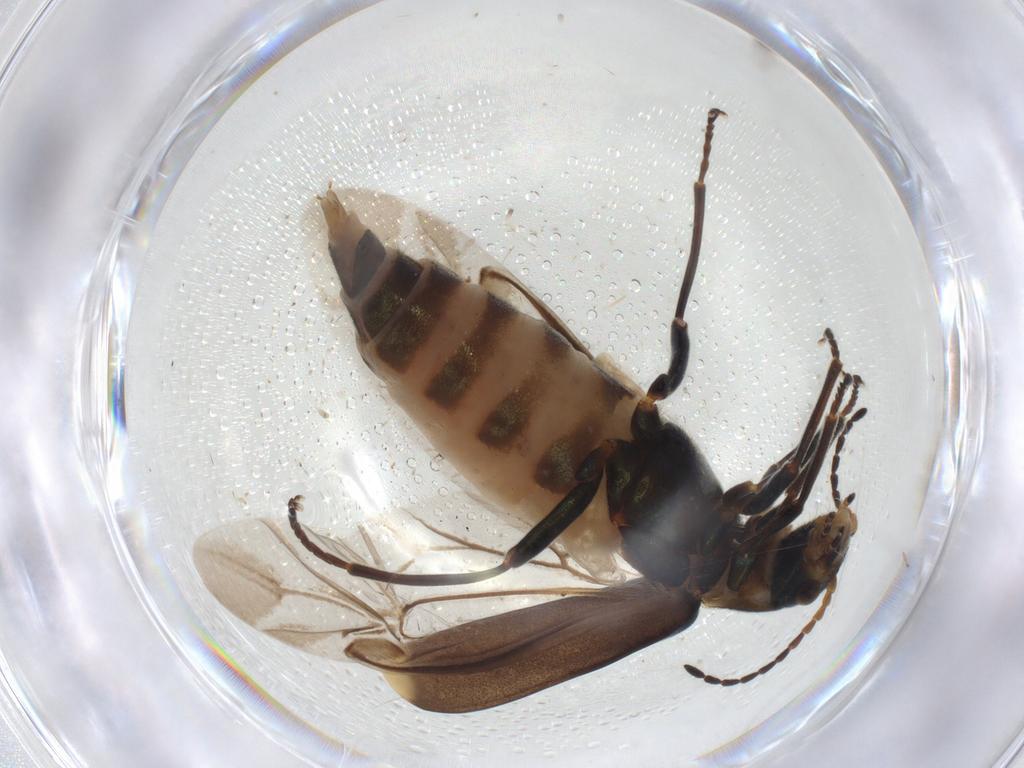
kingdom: Animalia
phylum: Arthropoda
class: Insecta
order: Coleoptera
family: Melyridae
